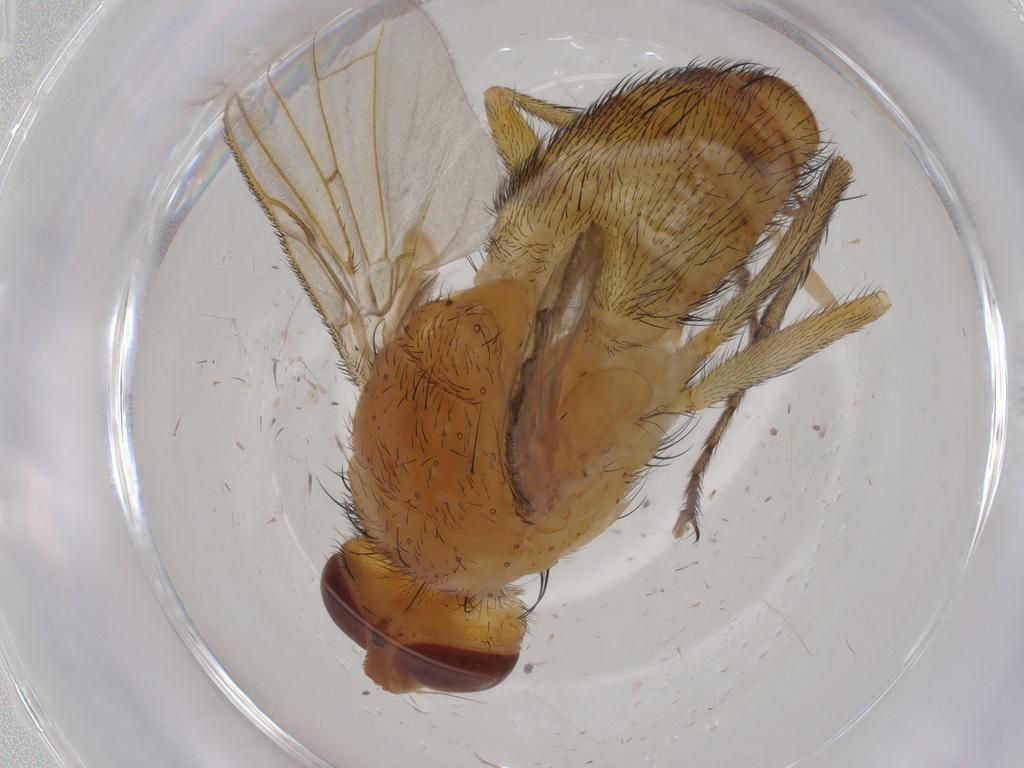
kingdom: Animalia
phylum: Arthropoda
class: Insecta
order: Diptera
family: Tachinidae
